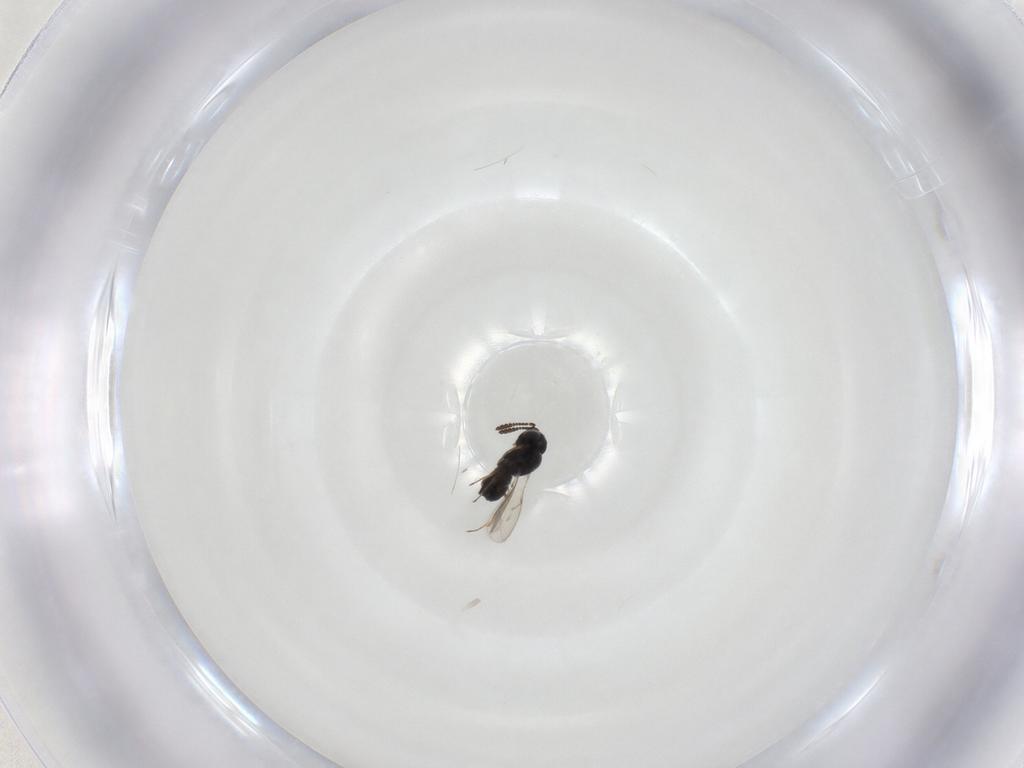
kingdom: Animalia
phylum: Arthropoda
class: Insecta
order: Hymenoptera
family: Scelionidae
